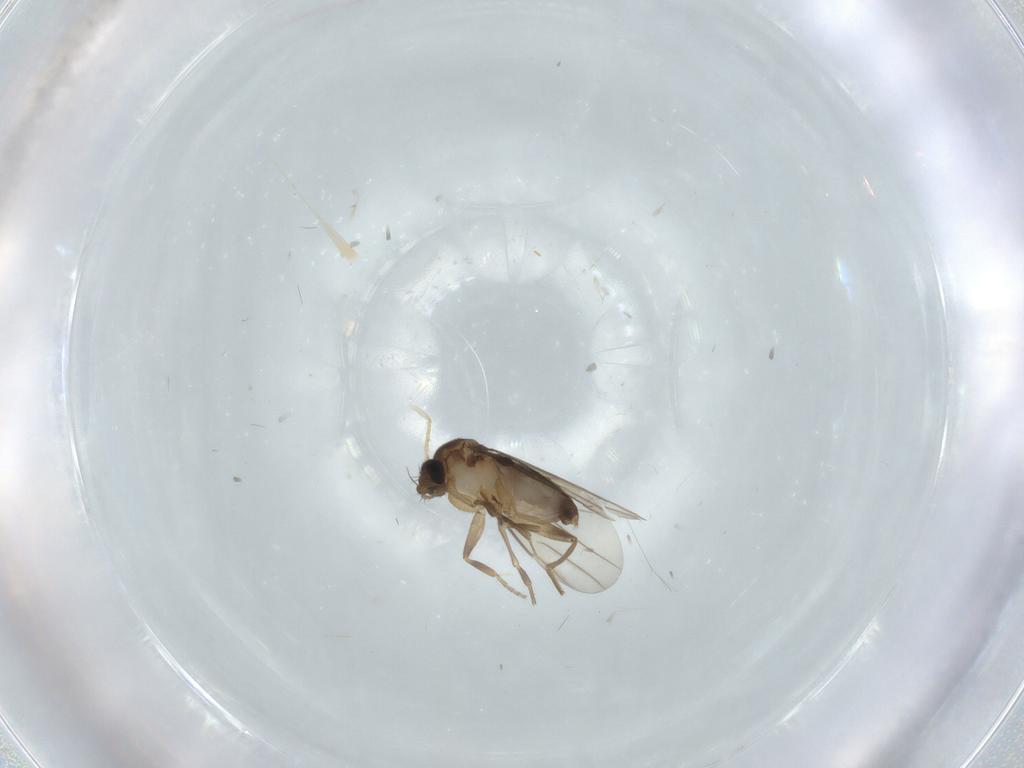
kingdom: Animalia
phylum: Arthropoda
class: Insecta
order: Diptera
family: Phoridae
